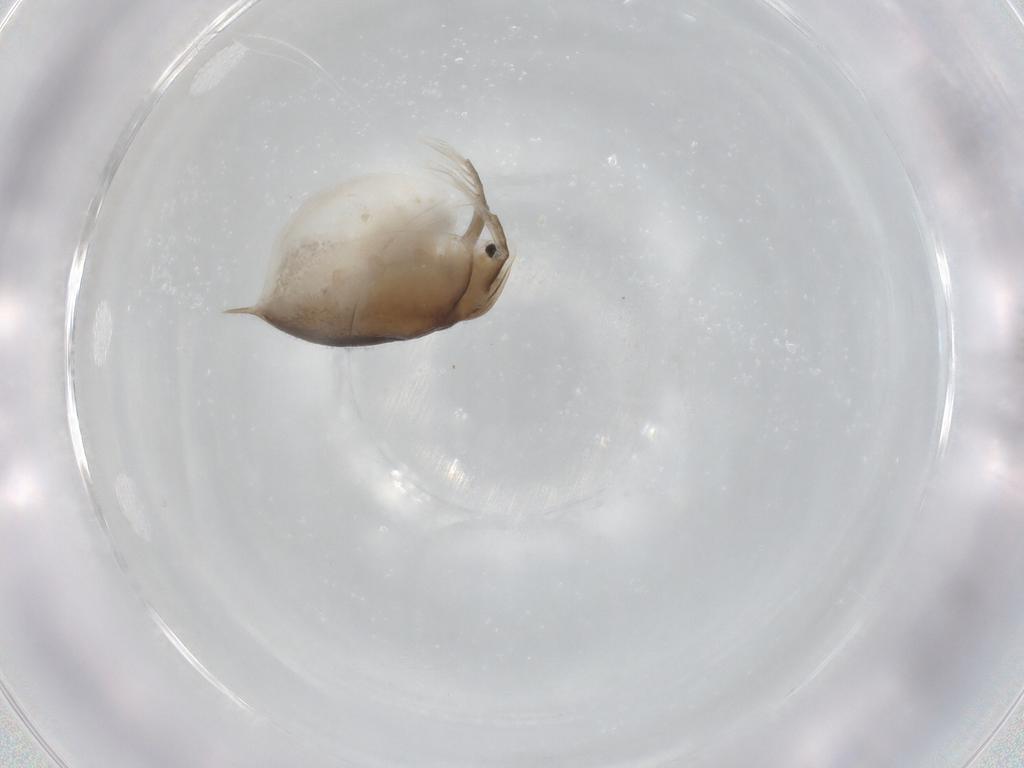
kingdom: Animalia
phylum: Arthropoda
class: Branchiopoda
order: Diplostraca
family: Daphniidae
